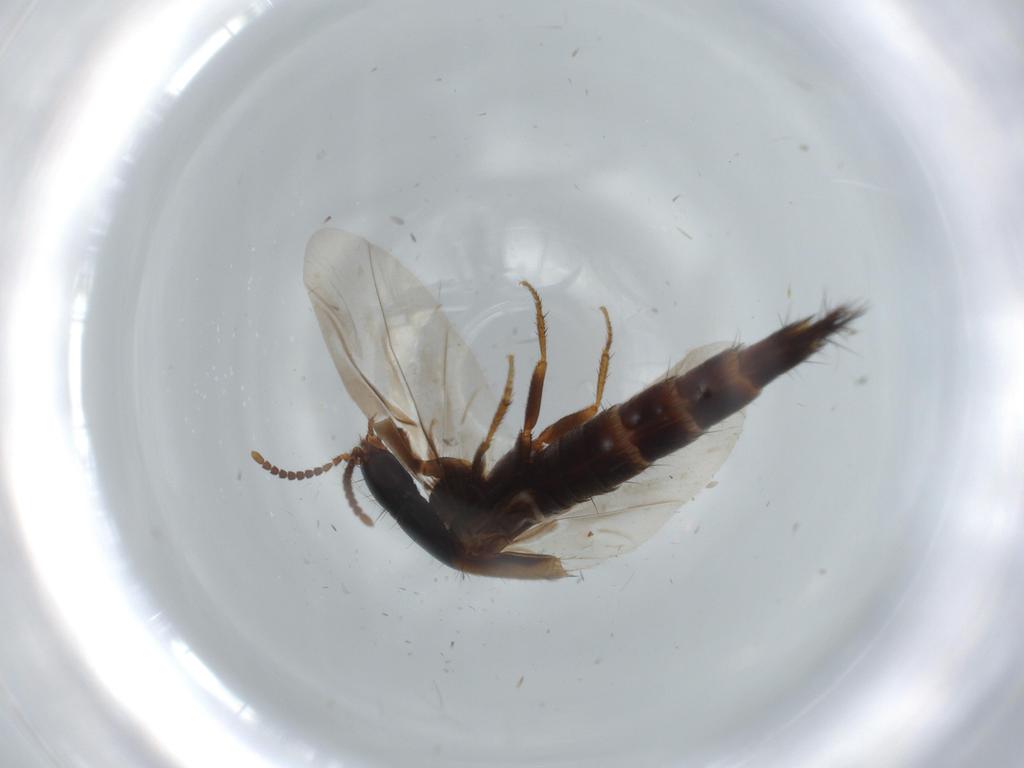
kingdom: Animalia
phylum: Arthropoda
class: Insecta
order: Coleoptera
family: Staphylinidae
